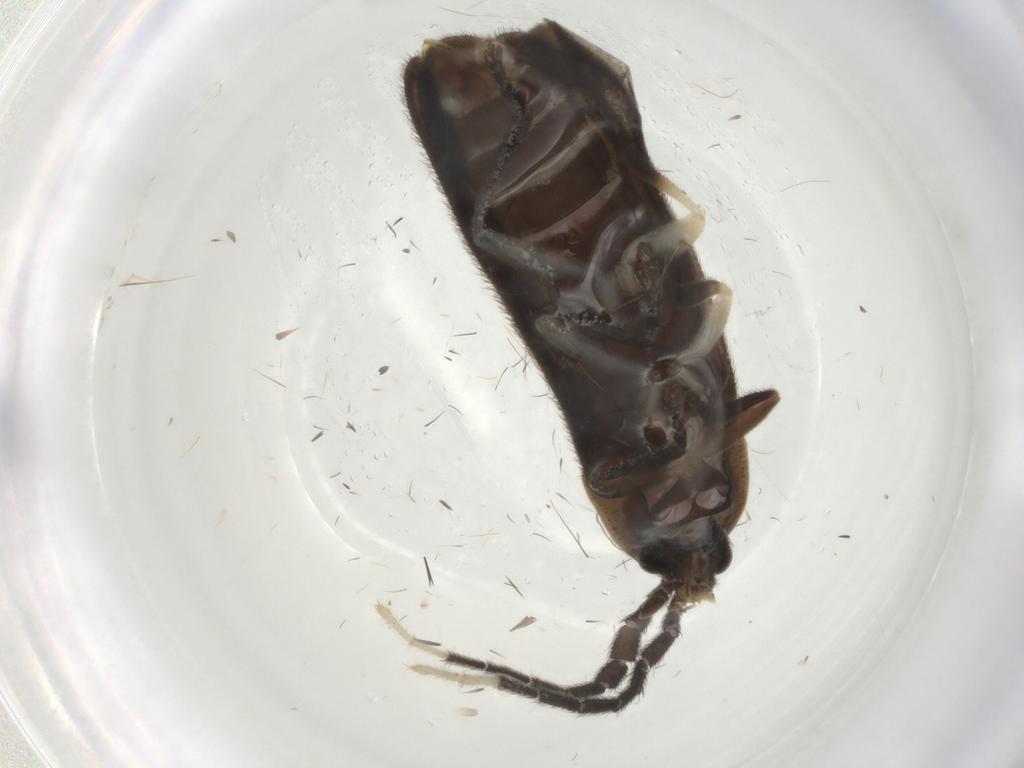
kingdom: Animalia
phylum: Arthropoda
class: Insecta
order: Coleoptera
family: Lampyridae
